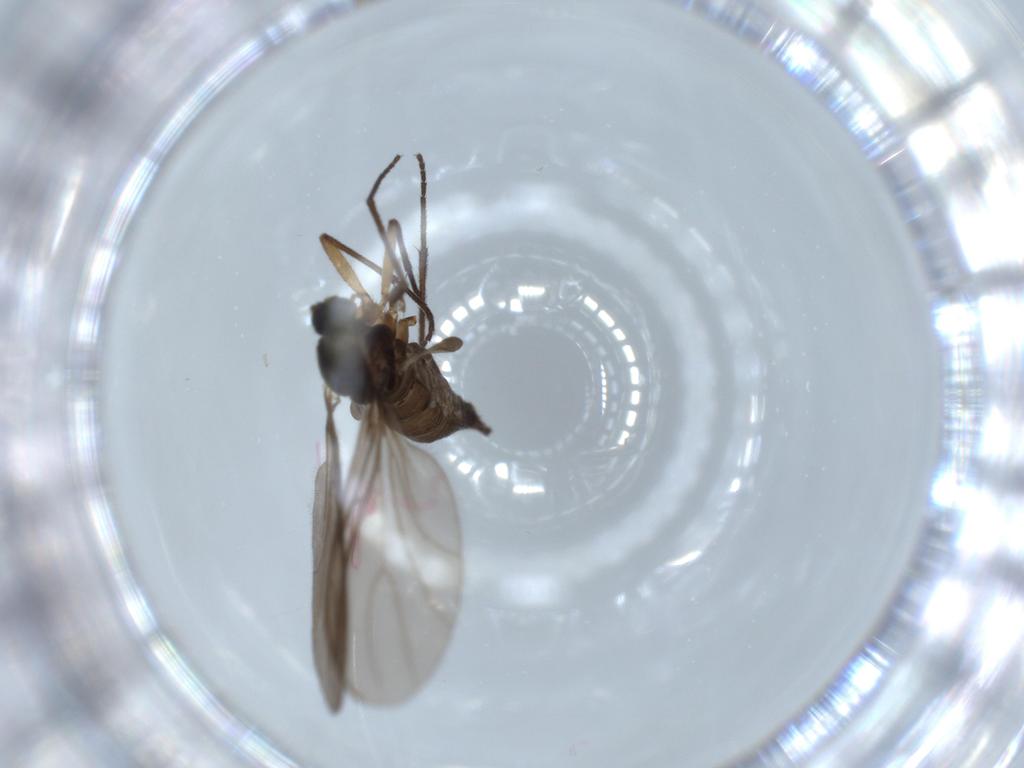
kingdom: Animalia
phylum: Arthropoda
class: Insecta
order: Diptera
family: Sciaridae
